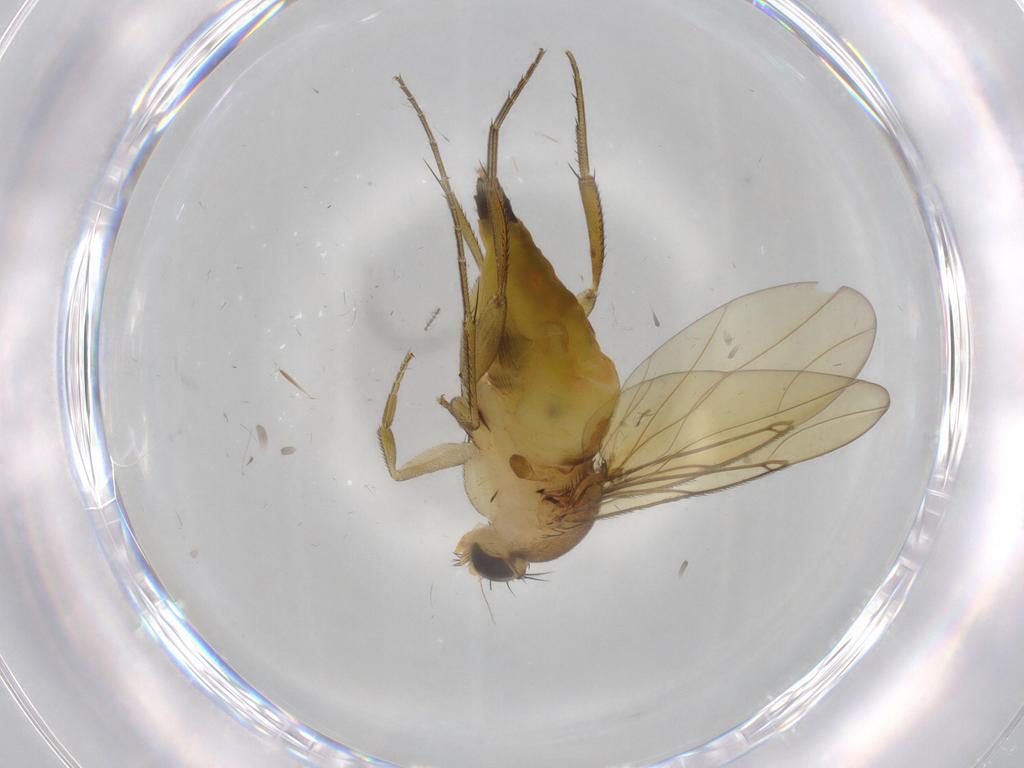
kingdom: Animalia
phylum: Arthropoda
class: Insecta
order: Diptera
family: Phoridae
